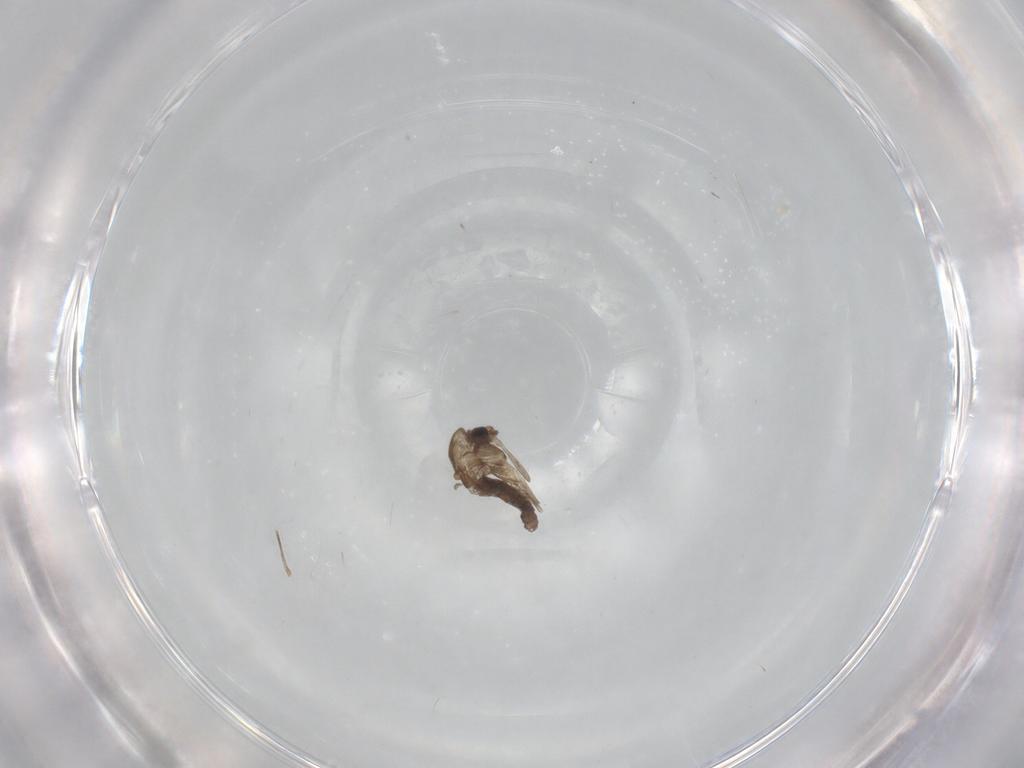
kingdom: Animalia
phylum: Arthropoda
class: Insecta
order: Diptera
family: Chironomidae
